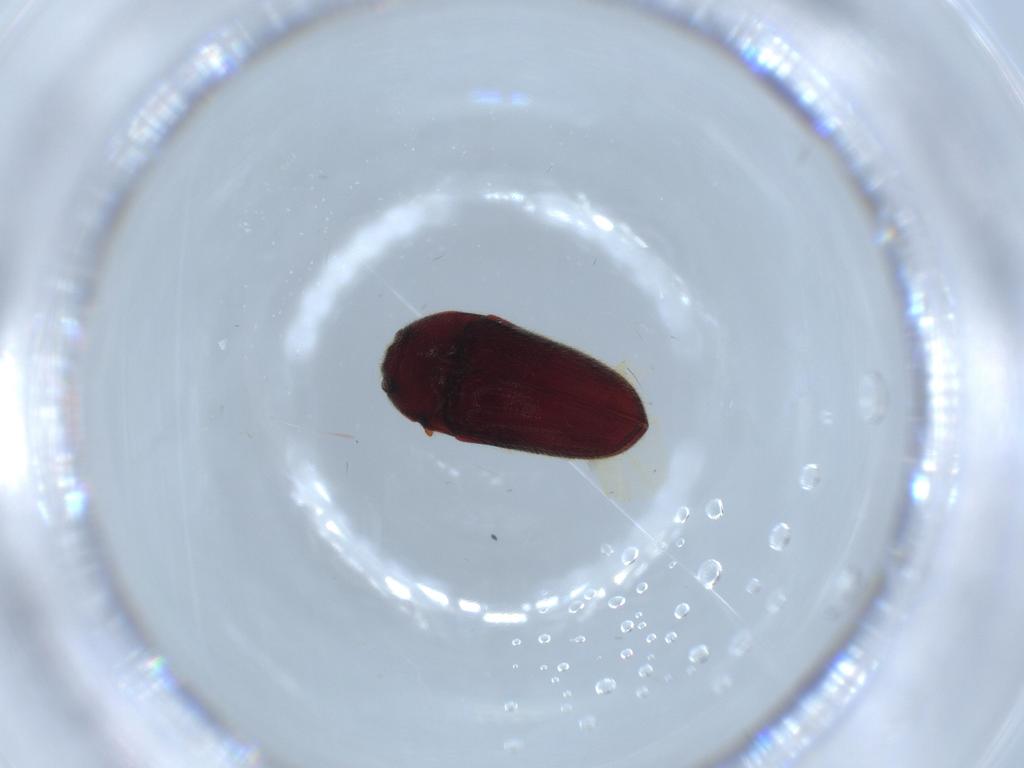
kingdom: Animalia
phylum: Arthropoda
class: Insecta
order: Coleoptera
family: Throscidae
